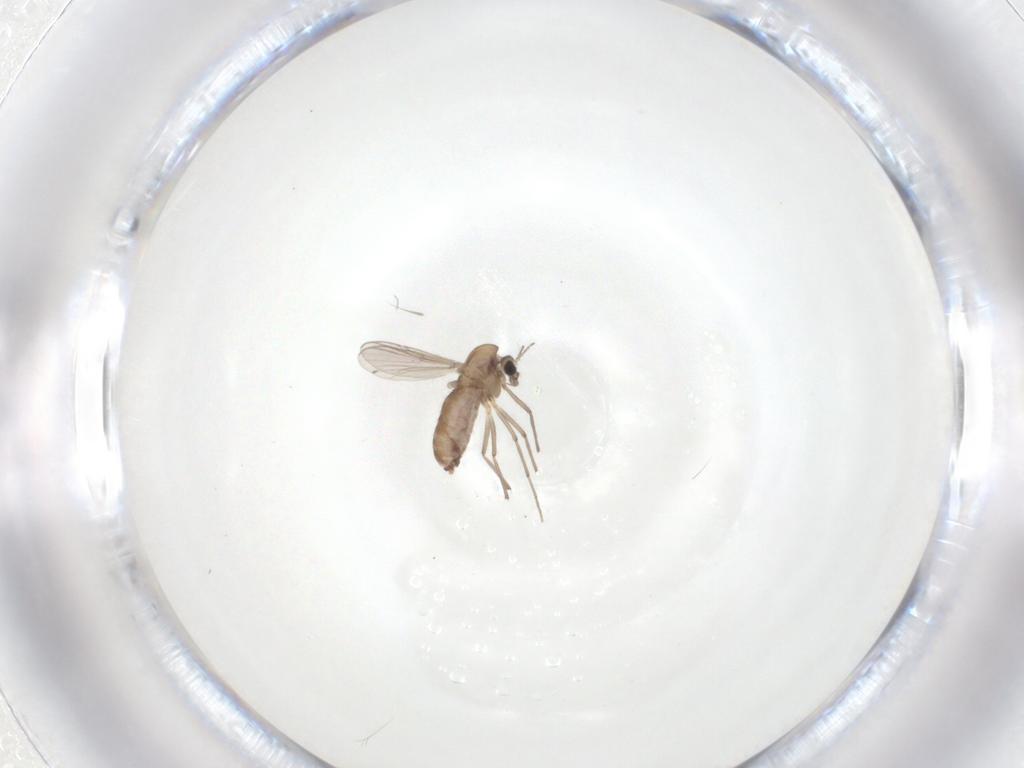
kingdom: Animalia
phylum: Arthropoda
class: Insecta
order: Diptera
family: Chironomidae
